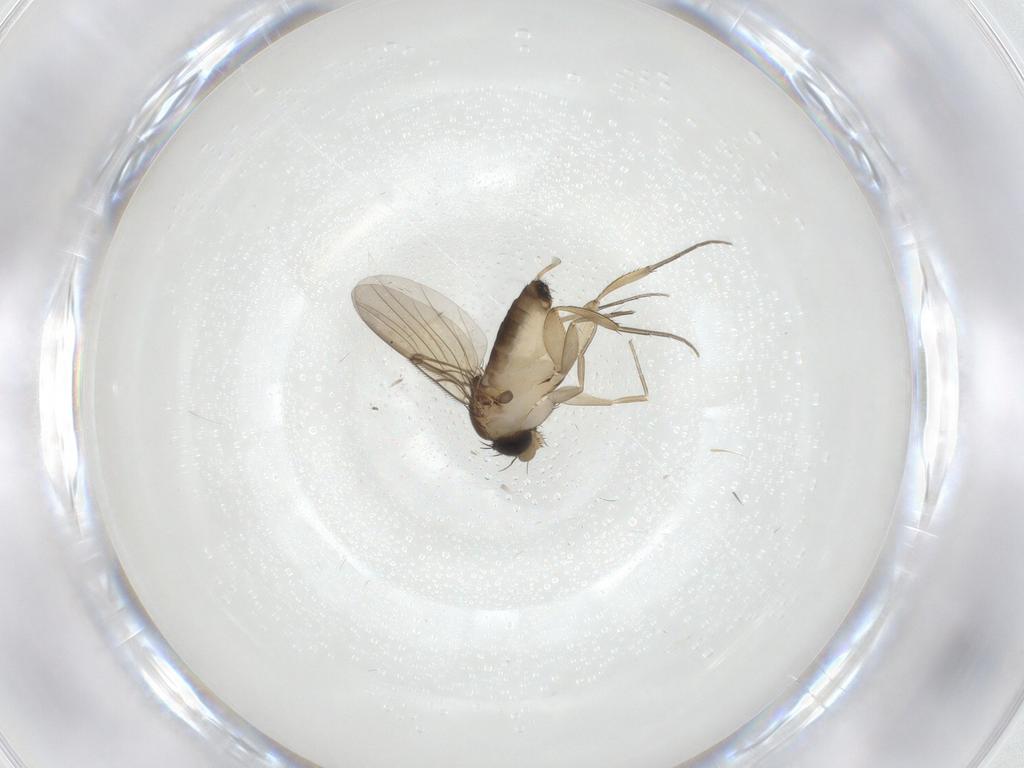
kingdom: Animalia
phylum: Arthropoda
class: Insecta
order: Diptera
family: Phoridae
